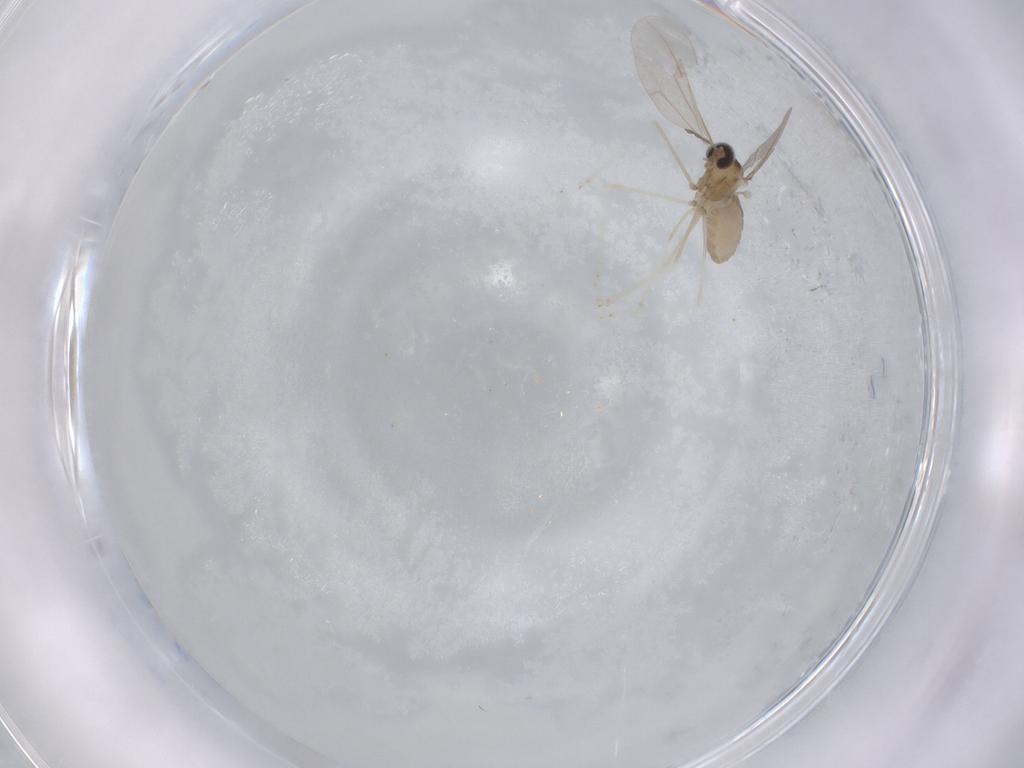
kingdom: Animalia
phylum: Arthropoda
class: Insecta
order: Diptera
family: Cecidomyiidae
